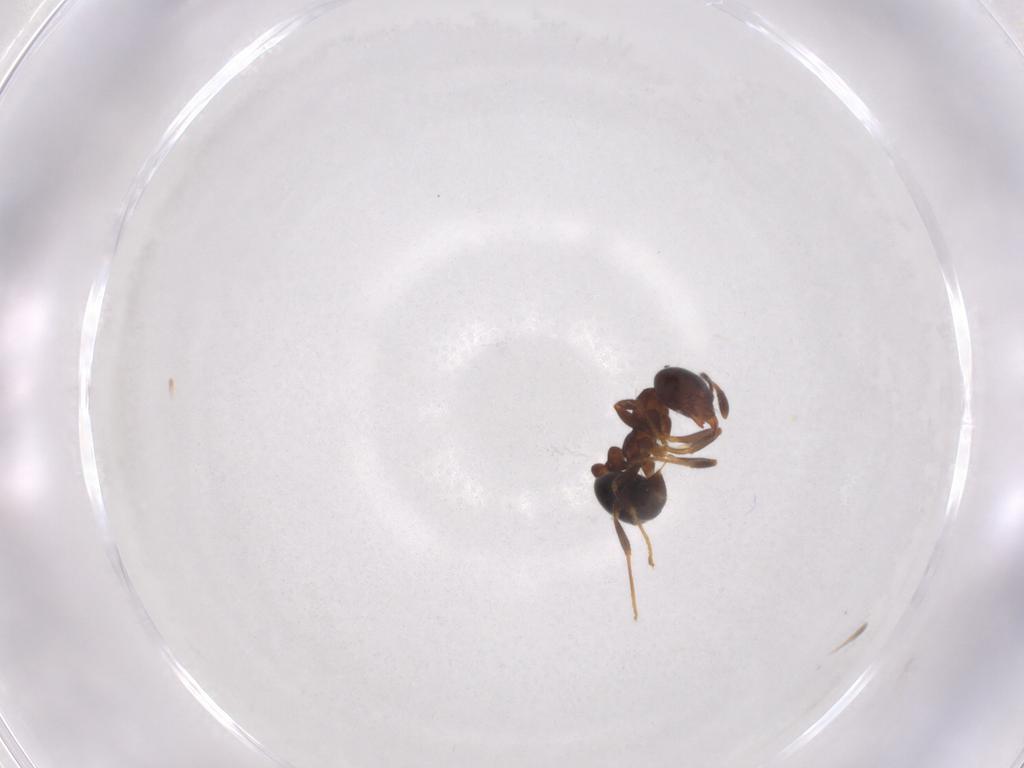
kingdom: Animalia
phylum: Arthropoda
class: Insecta
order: Hymenoptera
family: Formicidae
